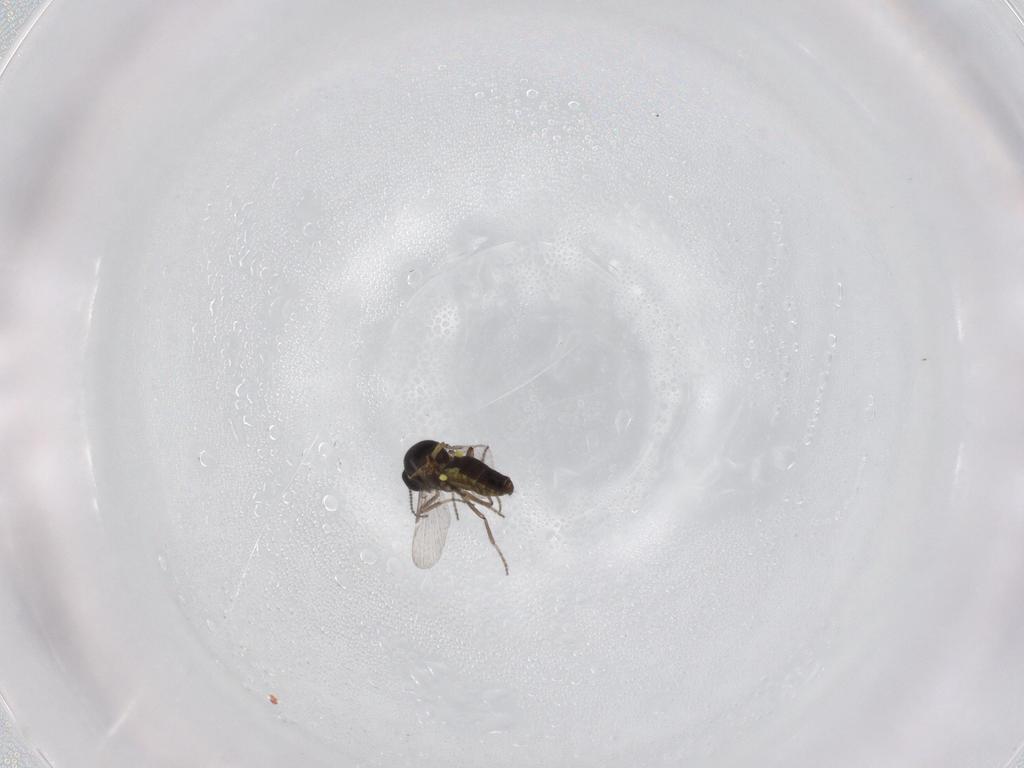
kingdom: Animalia
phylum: Arthropoda
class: Insecta
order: Diptera
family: Ceratopogonidae
